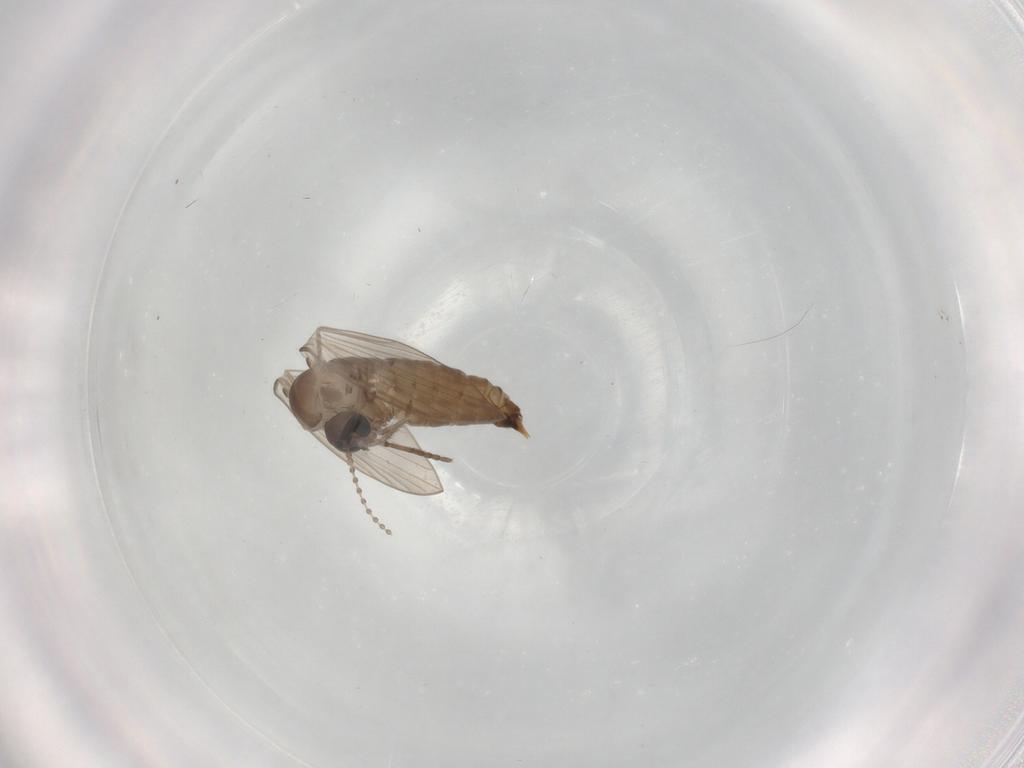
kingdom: Animalia
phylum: Arthropoda
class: Insecta
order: Diptera
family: Psychodidae
